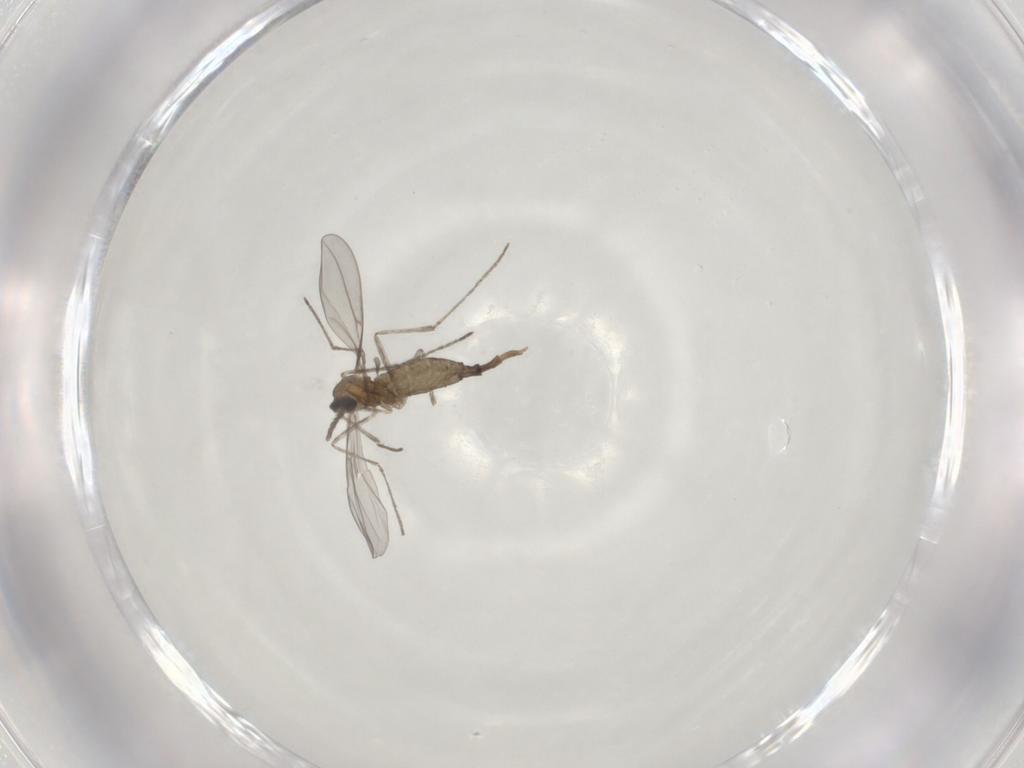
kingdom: Animalia
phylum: Arthropoda
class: Insecta
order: Diptera
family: Cecidomyiidae
